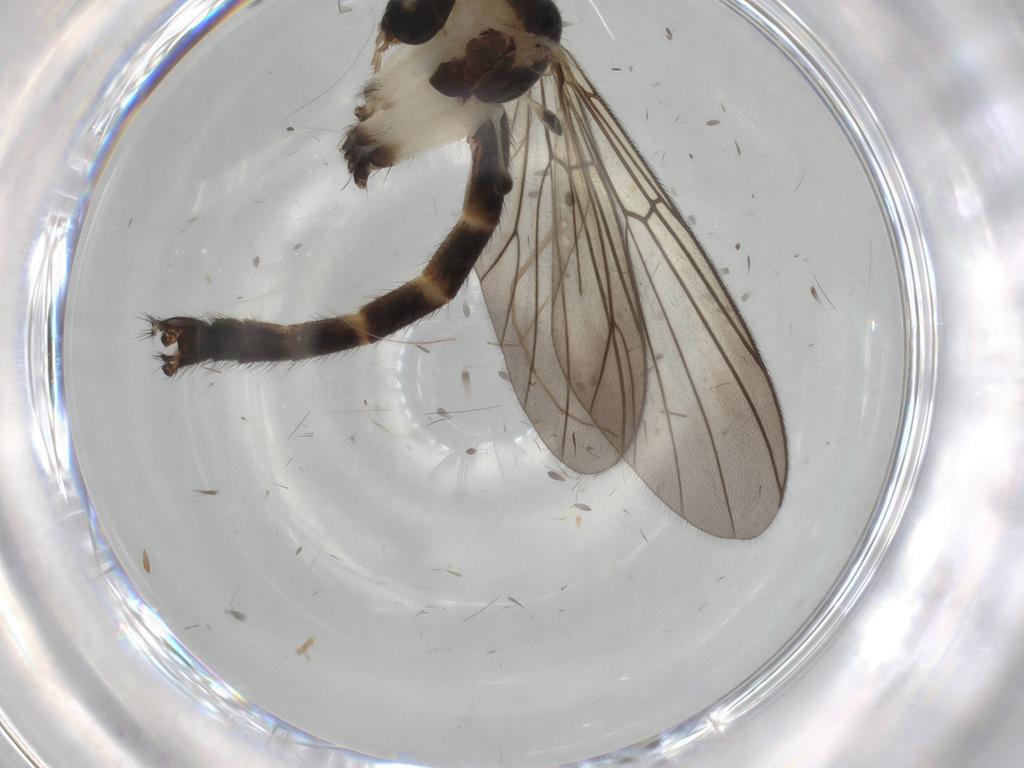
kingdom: Animalia
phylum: Arthropoda
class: Insecta
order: Diptera
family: Mycetophilidae
